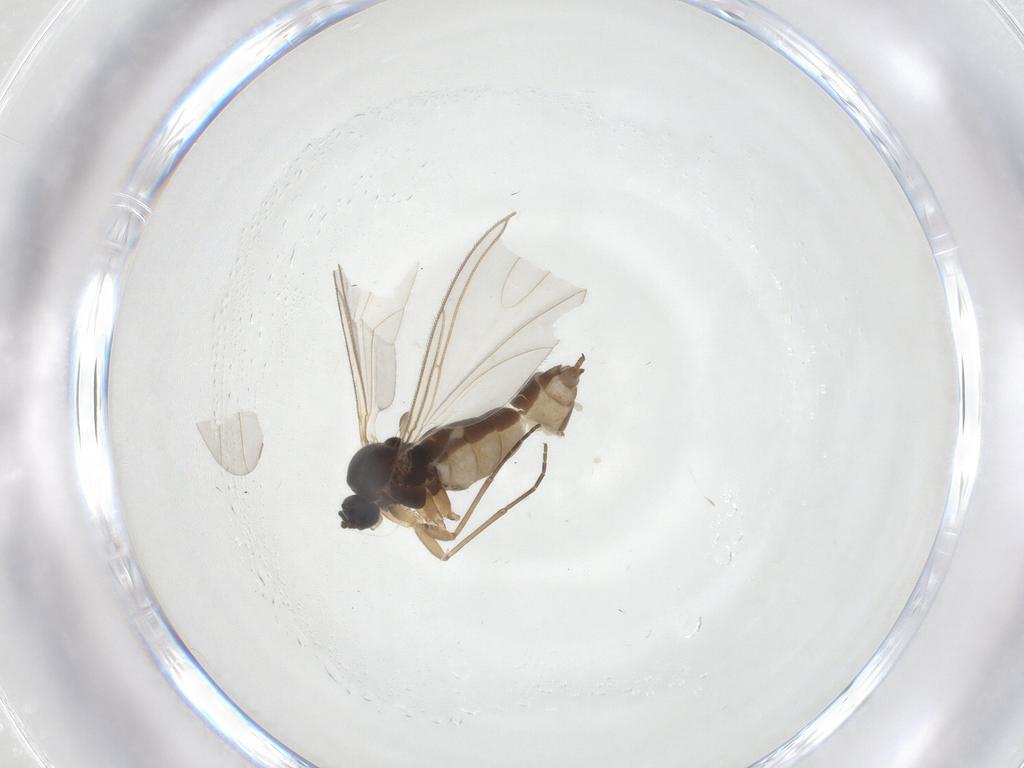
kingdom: Animalia
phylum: Arthropoda
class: Insecta
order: Diptera
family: Sciaridae
